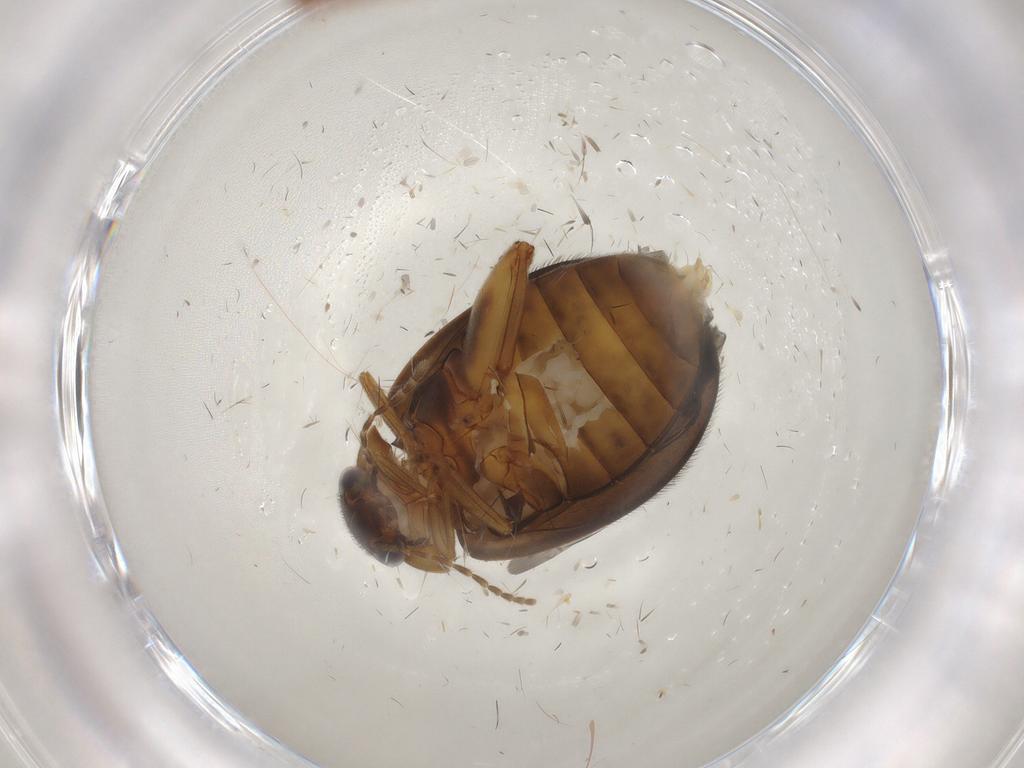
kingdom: Animalia
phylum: Arthropoda
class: Insecta
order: Coleoptera
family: Scirtidae
